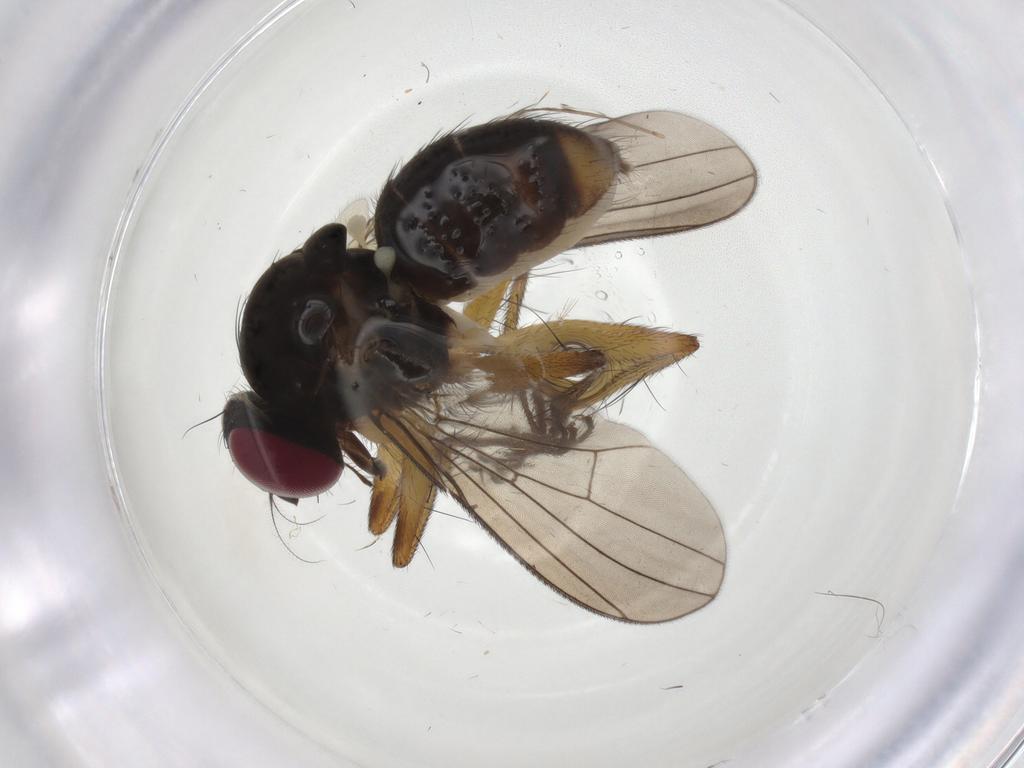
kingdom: Animalia
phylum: Arthropoda
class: Insecta
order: Diptera
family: Anthomyiidae
